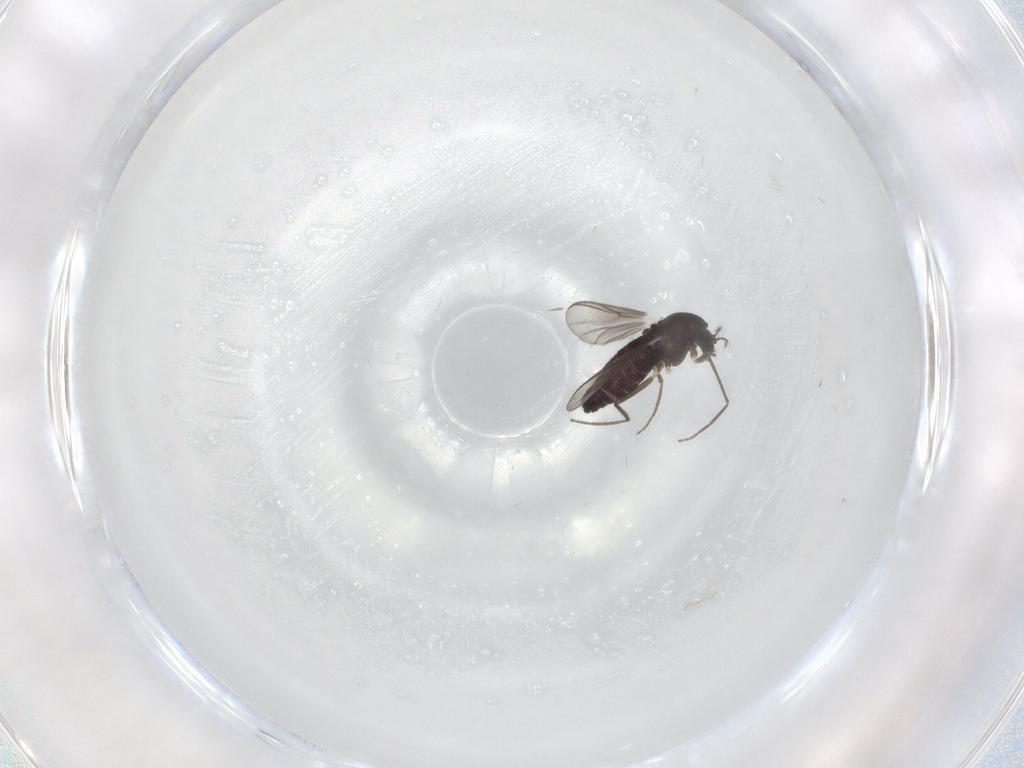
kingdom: Animalia
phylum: Arthropoda
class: Insecta
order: Diptera
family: Chironomidae
